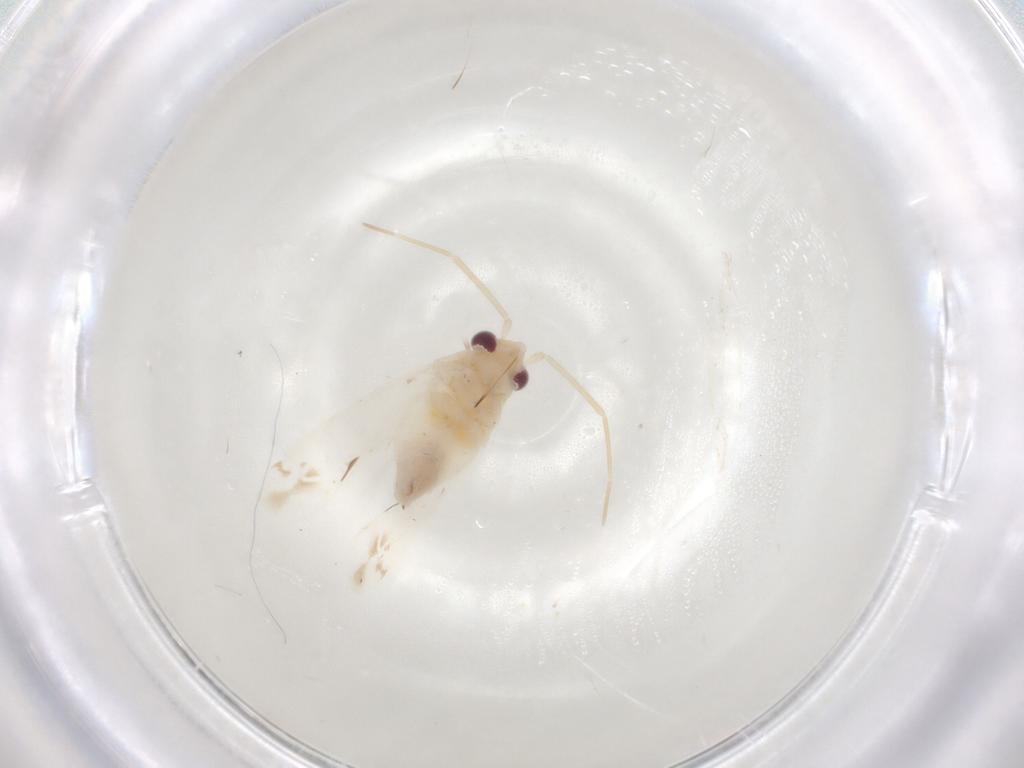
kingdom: Animalia
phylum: Arthropoda
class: Insecta
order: Hemiptera
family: Miridae
